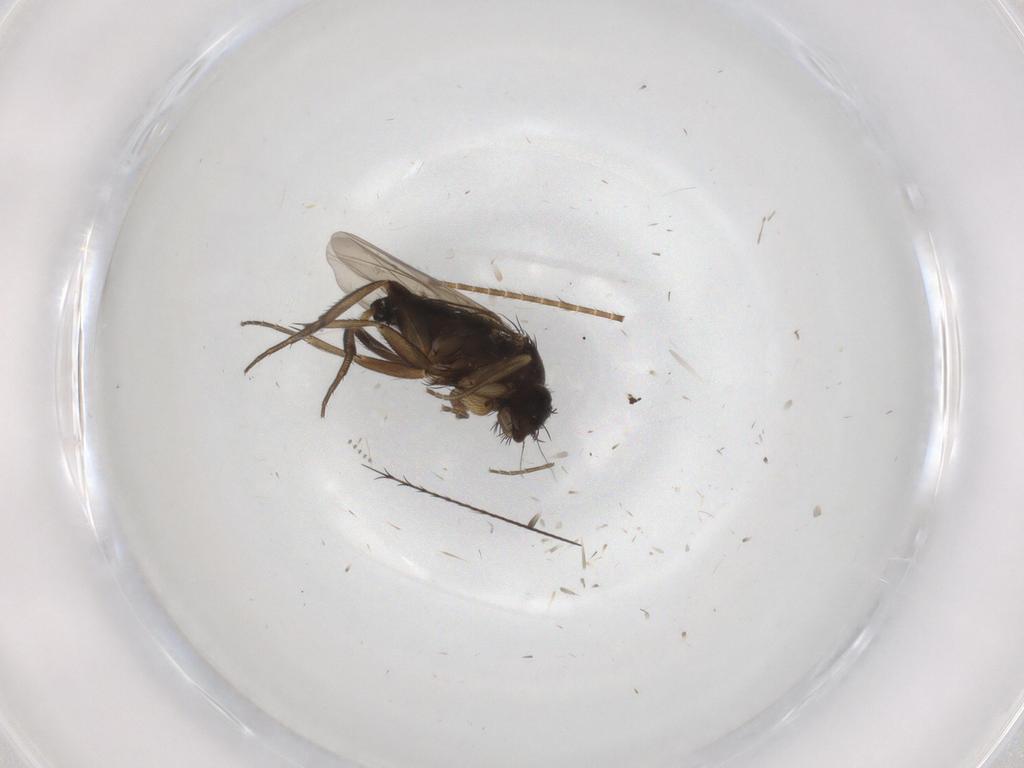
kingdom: Animalia
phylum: Arthropoda
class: Insecta
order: Diptera
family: Phoridae
